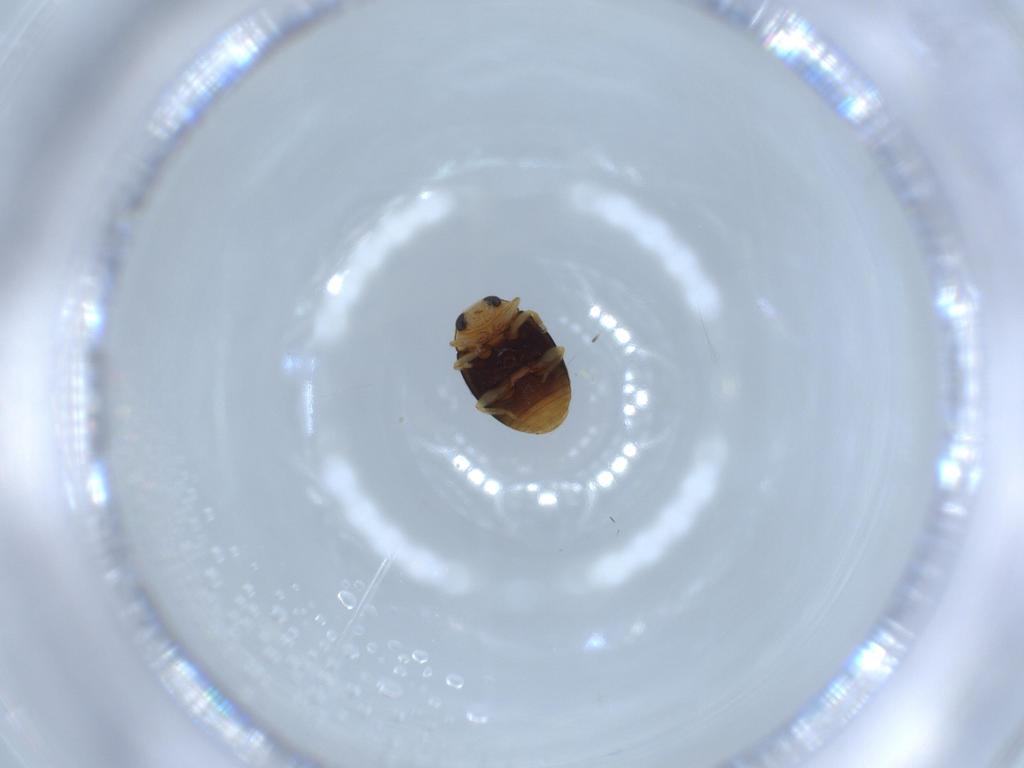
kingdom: Animalia
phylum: Arthropoda
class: Insecta
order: Coleoptera
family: Coccinellidae
